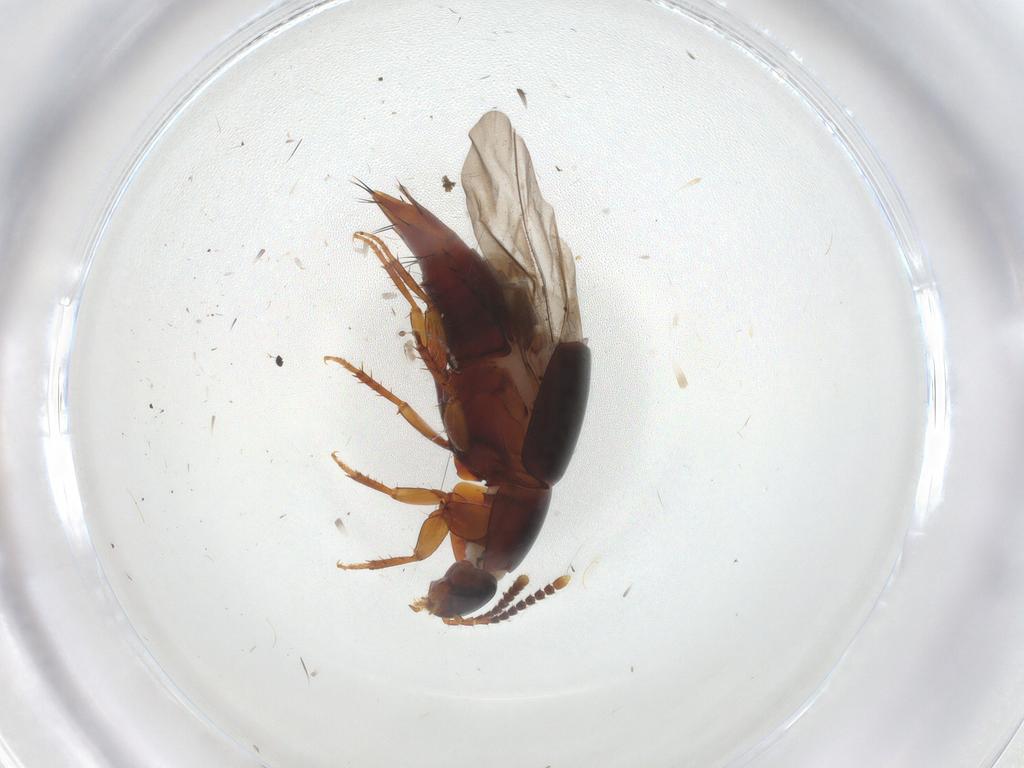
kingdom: Animalia
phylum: Arthropoda
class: Insecta
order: Coleoptera
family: Staphylinidae
